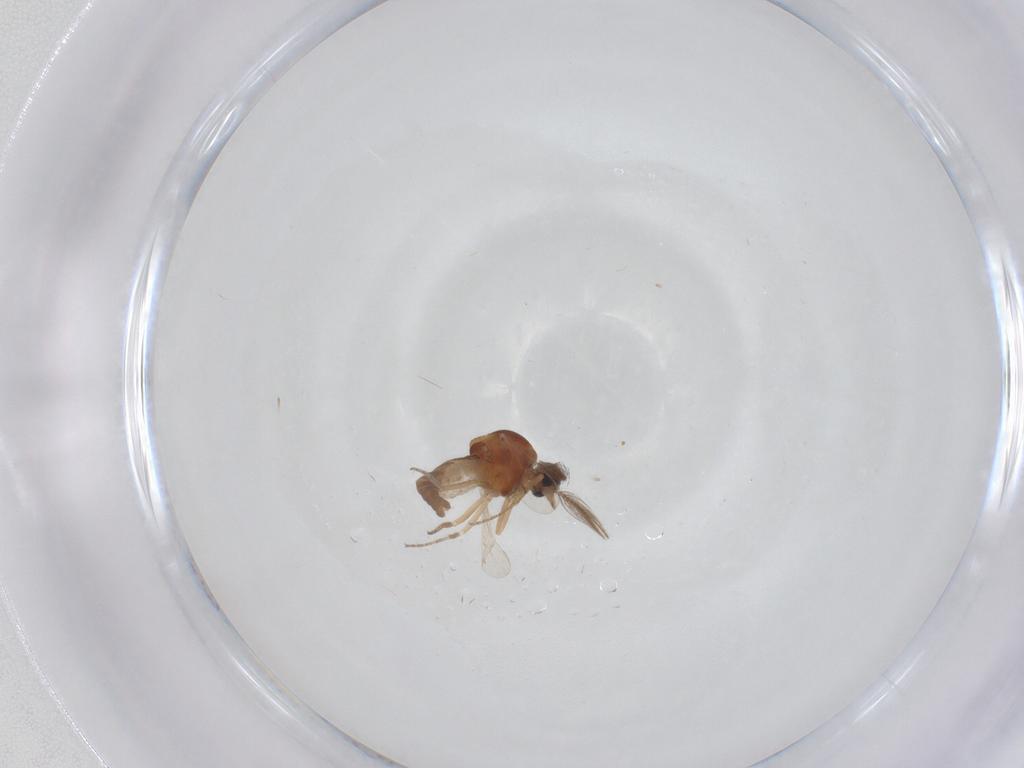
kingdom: Animalia
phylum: Arthropoda
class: Insecta
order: Diptera
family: Ceratopogonidae
